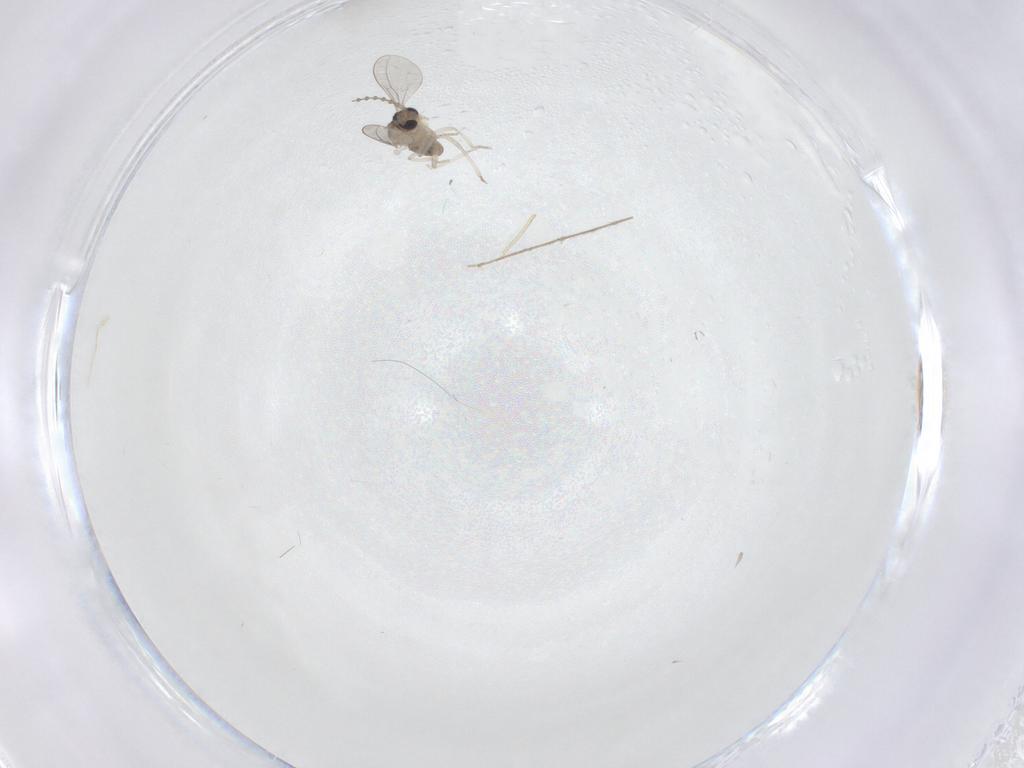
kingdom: Animalia
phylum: Arthropoda
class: Insecta
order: Diptera
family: Cecidomyiidae
